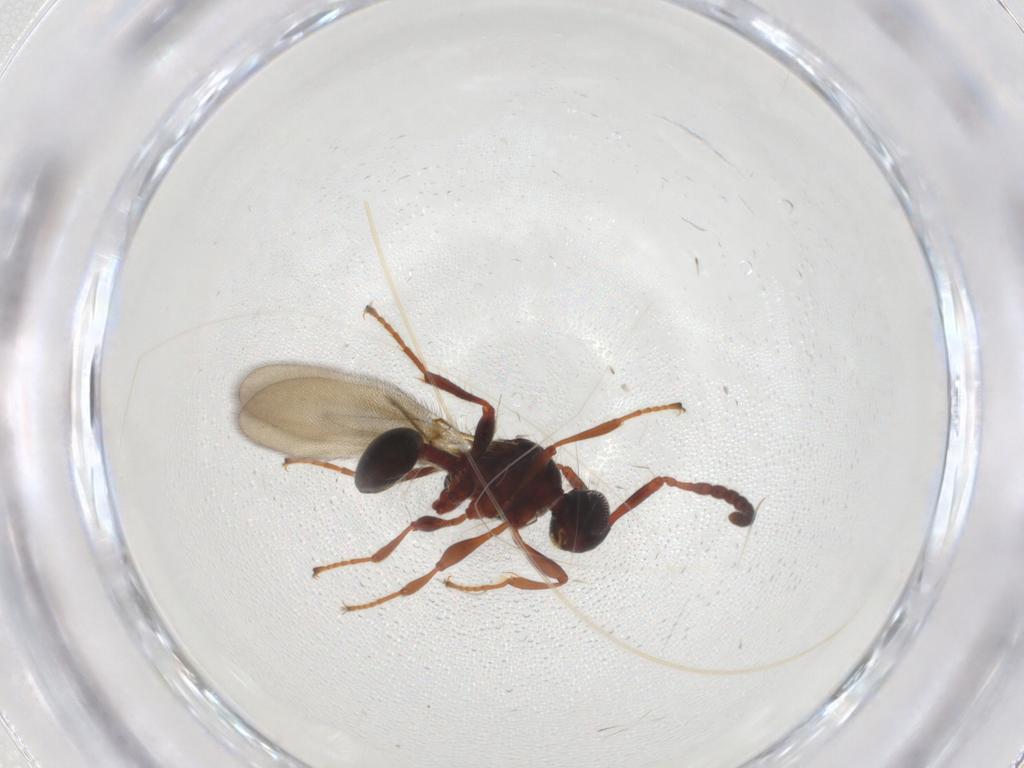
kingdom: Animalia
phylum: Arthropoda
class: Insecta
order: Hymenoptera
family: Diapriidae
